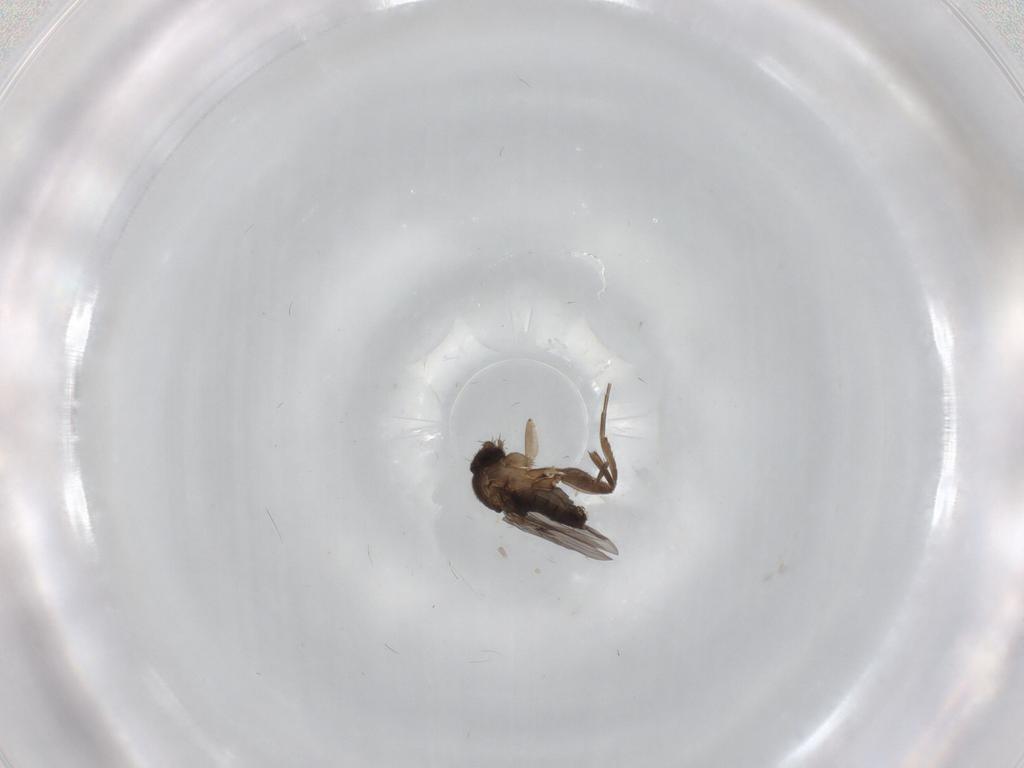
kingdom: Animalia
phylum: Arthropoda
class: Insecta
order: Diptera
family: Phoridae
